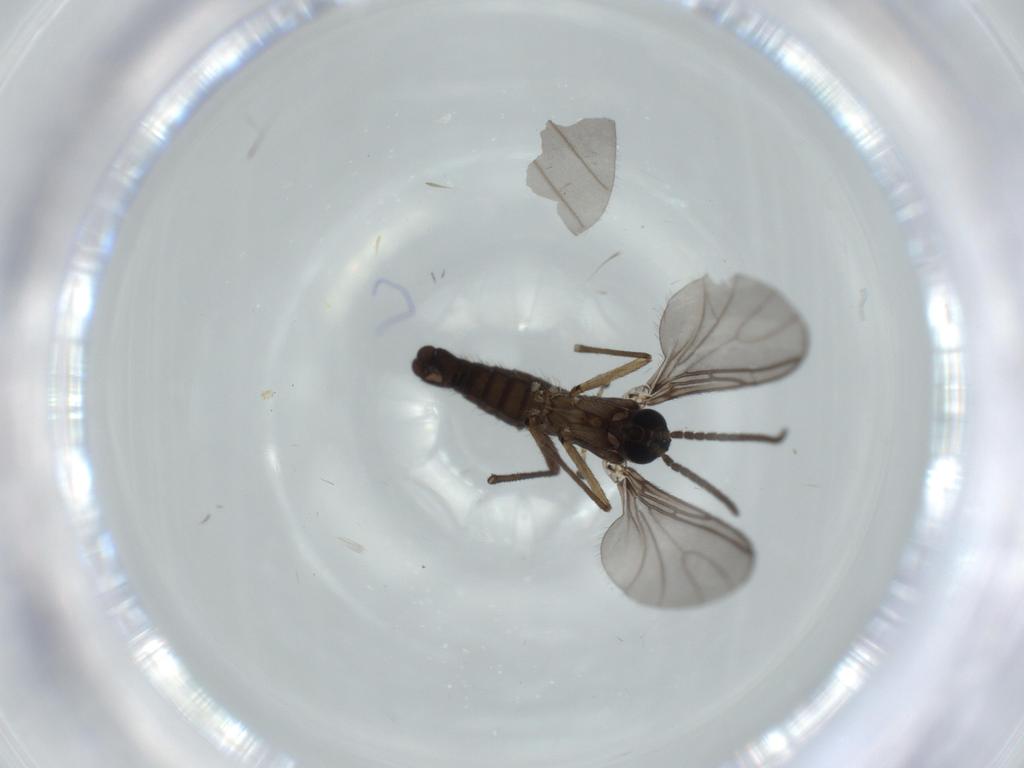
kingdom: Animalia
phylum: Arthropoda
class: Insecta
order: Diptera
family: Sciaridae
